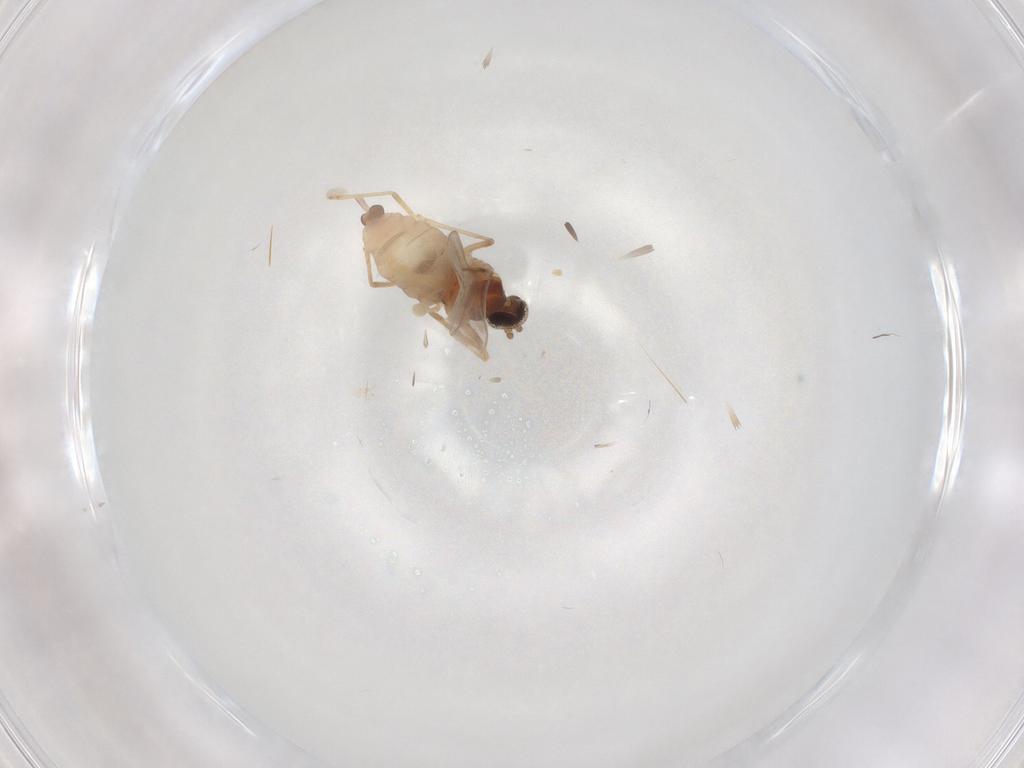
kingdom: Animalia
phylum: Arthropoda
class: Insecta
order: Diptera
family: Cecidomyiidae
